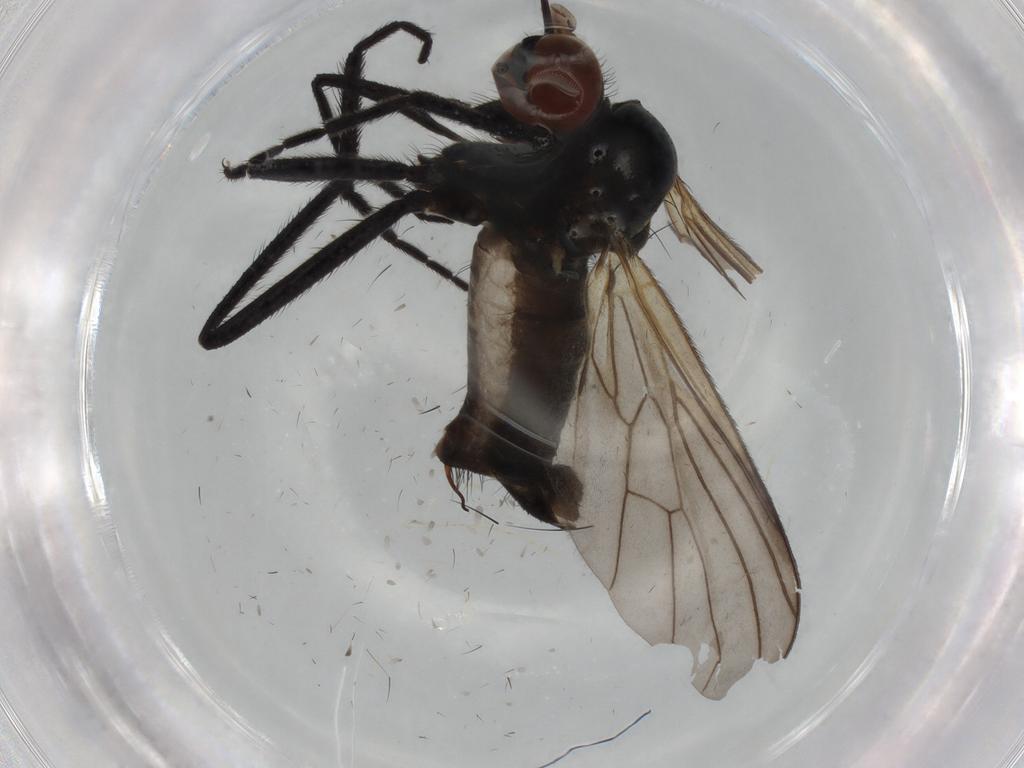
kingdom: Animalia
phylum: Arthropoda
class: Insecta
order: Diptera
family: Empididae
